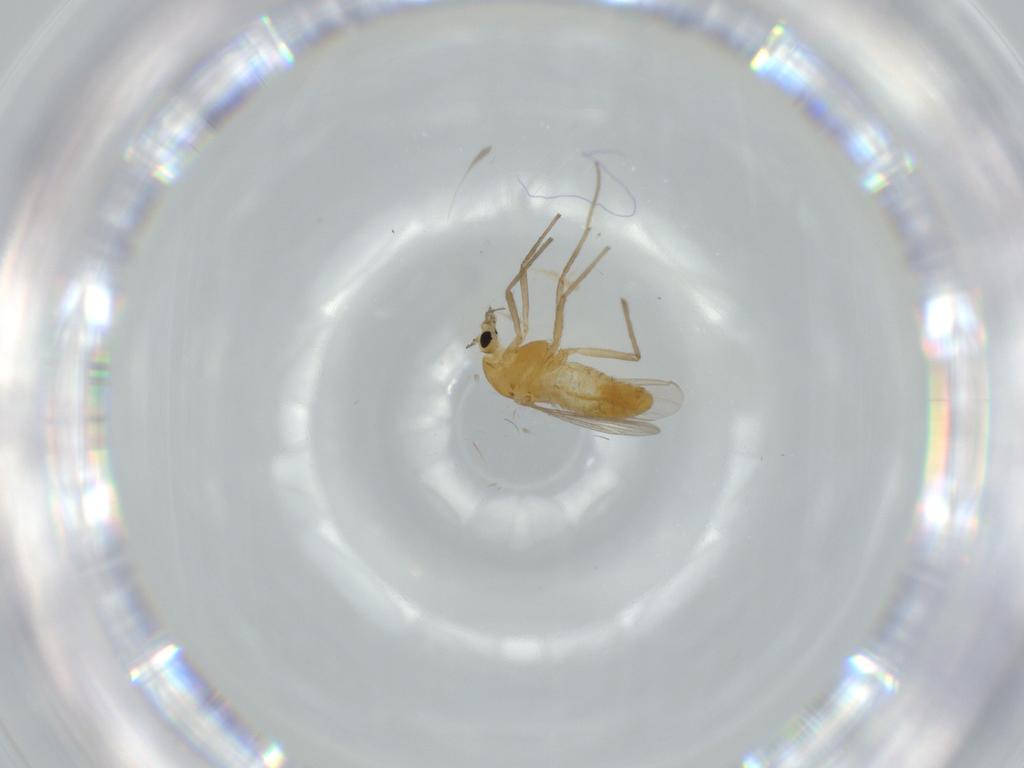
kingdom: Animalia
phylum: Arthropoda
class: Insecta
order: Diptera
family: Chironomidae
